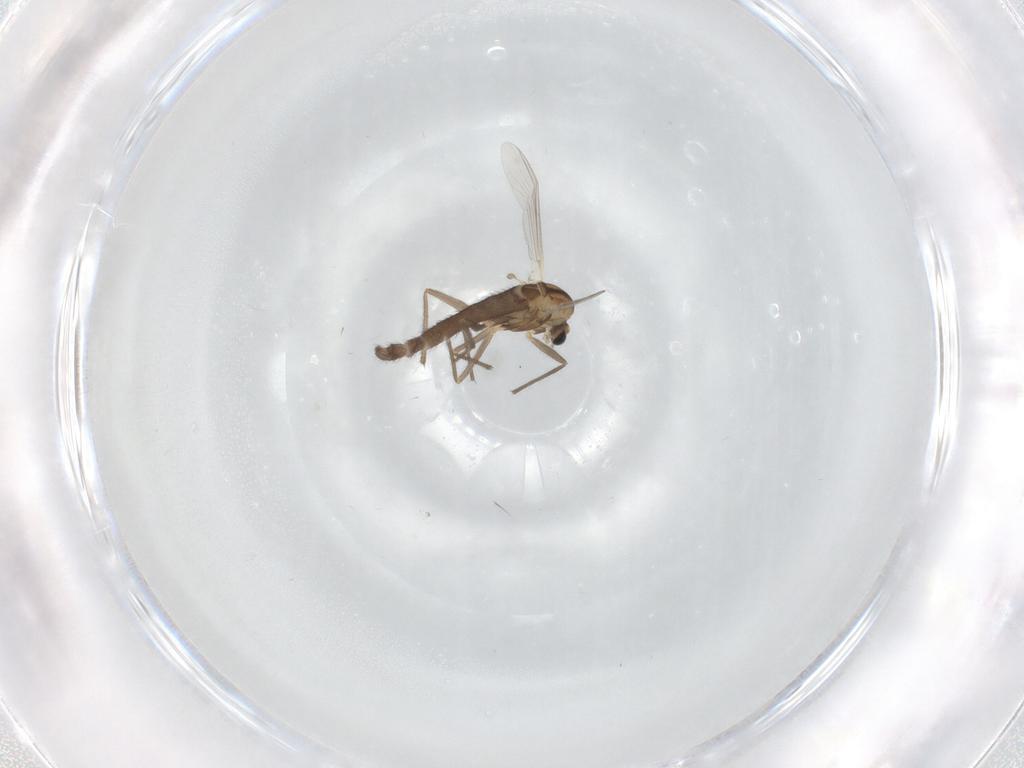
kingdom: Animalia
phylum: Arthropoda
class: Insecta
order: Diptera
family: Chironomidae
